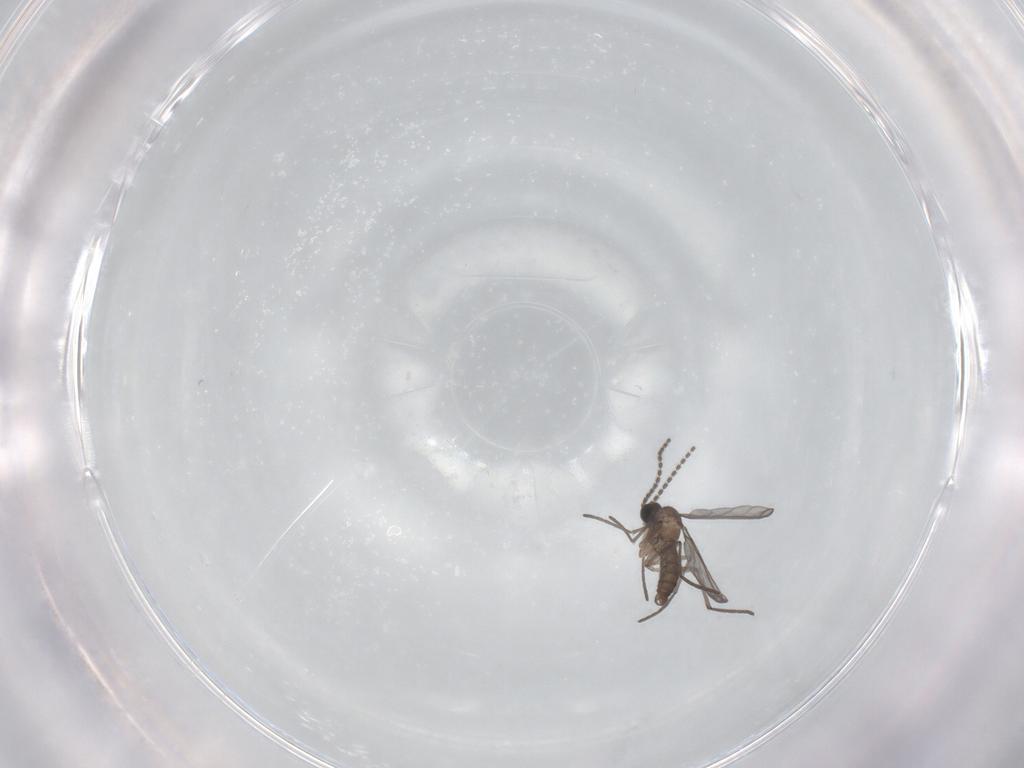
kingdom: Animalia
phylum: Arthropoda
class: Insecta
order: Diptera
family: Sciaridae
